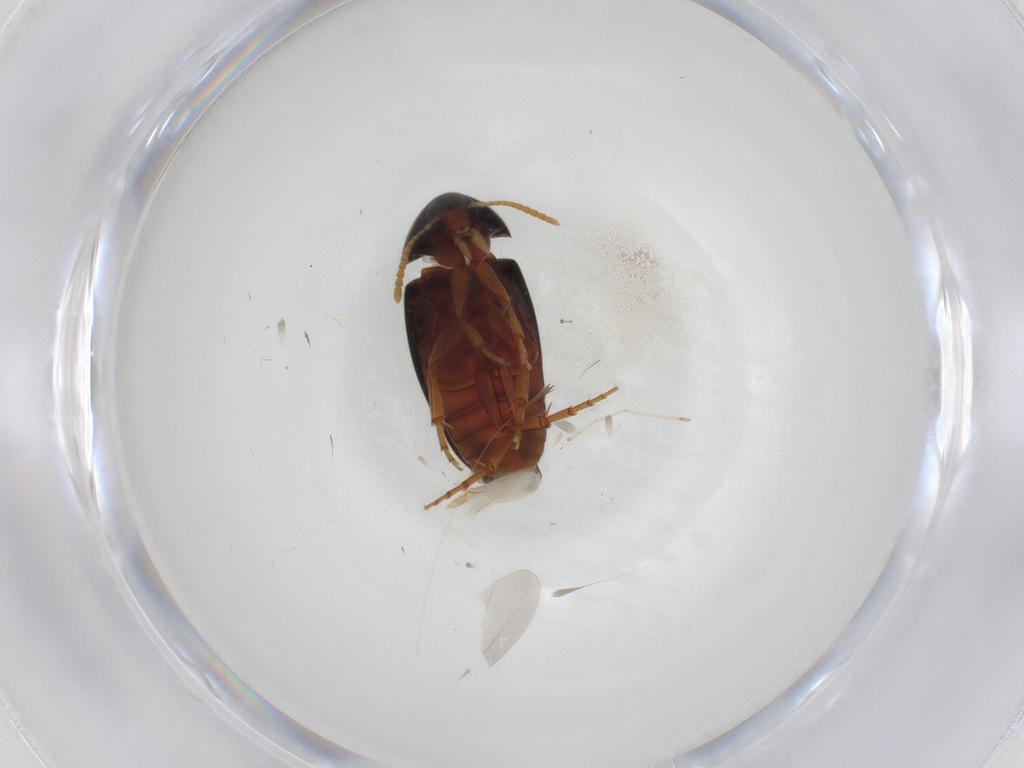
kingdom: Animalia
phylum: Arthropoda
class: Insecta
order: Coleoptera
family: Scraptiidae
